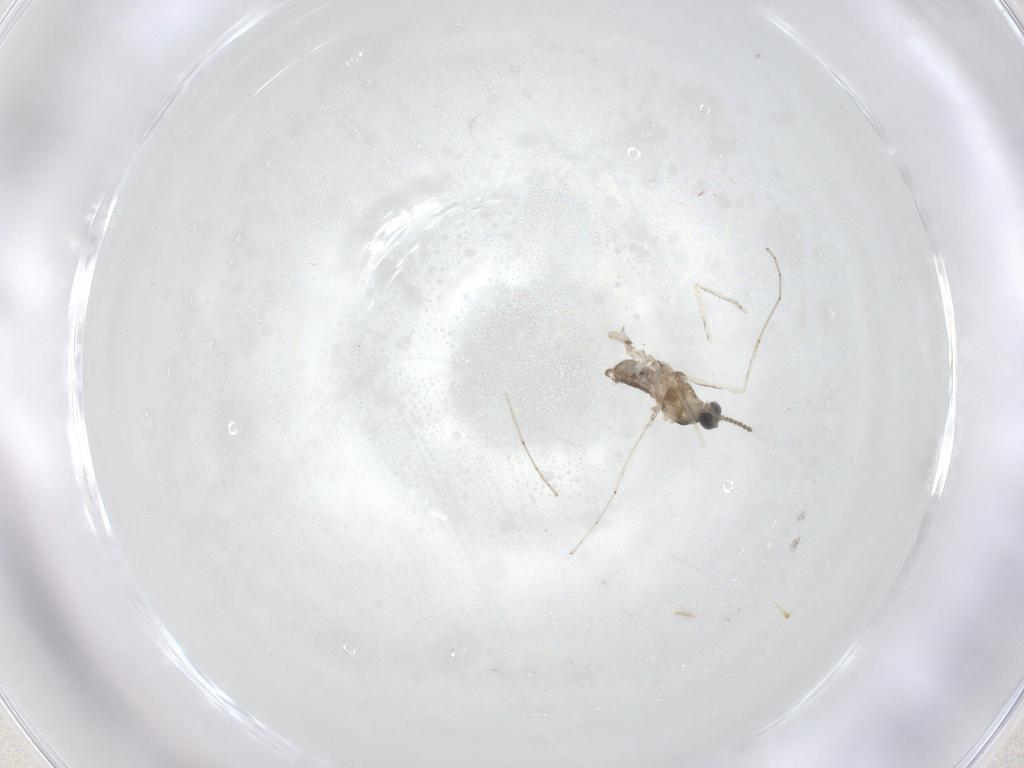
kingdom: Animalia
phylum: Arthropoda
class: Insecta
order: Diptera
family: Cecidomyiidae
